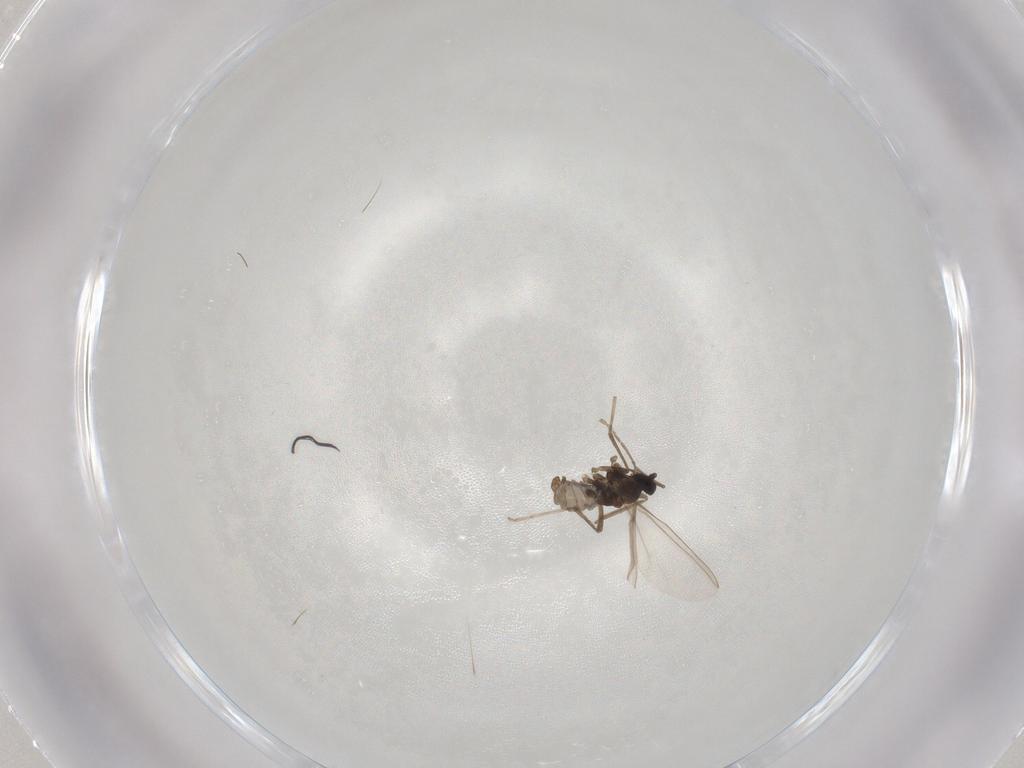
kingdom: Animalia
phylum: Arthropoda
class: Insecta
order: Diptera
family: Cecidomyiidae
